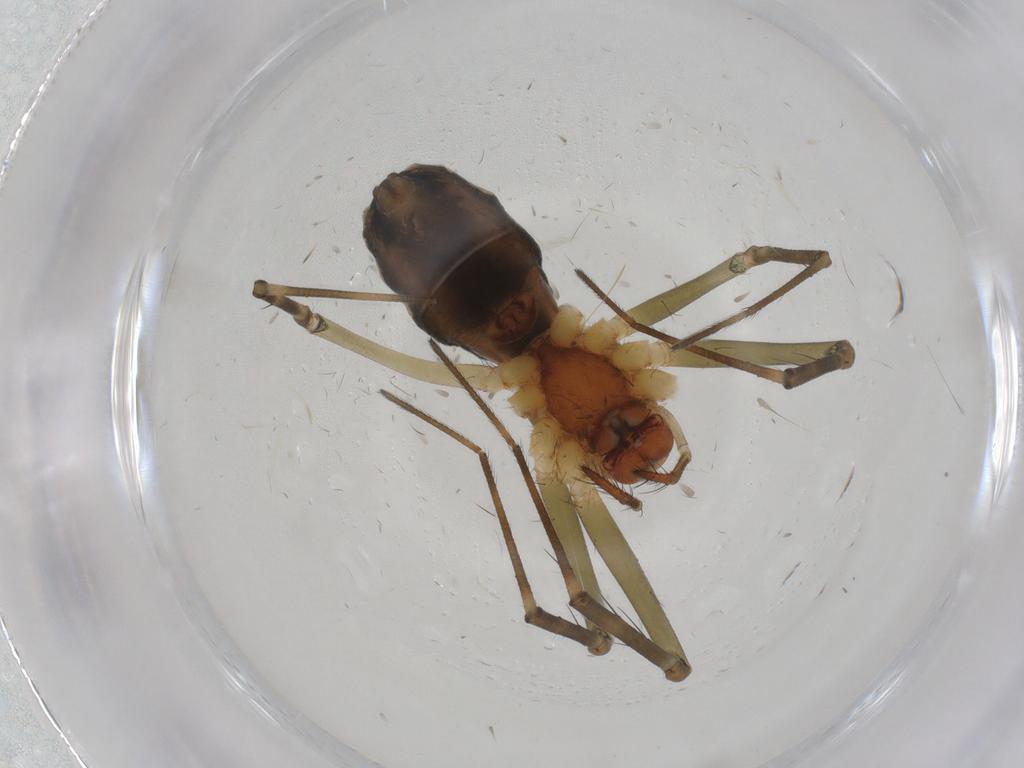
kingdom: Animalia
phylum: Arthropoda
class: Arachnida
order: Araneae
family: Linyphiidae
